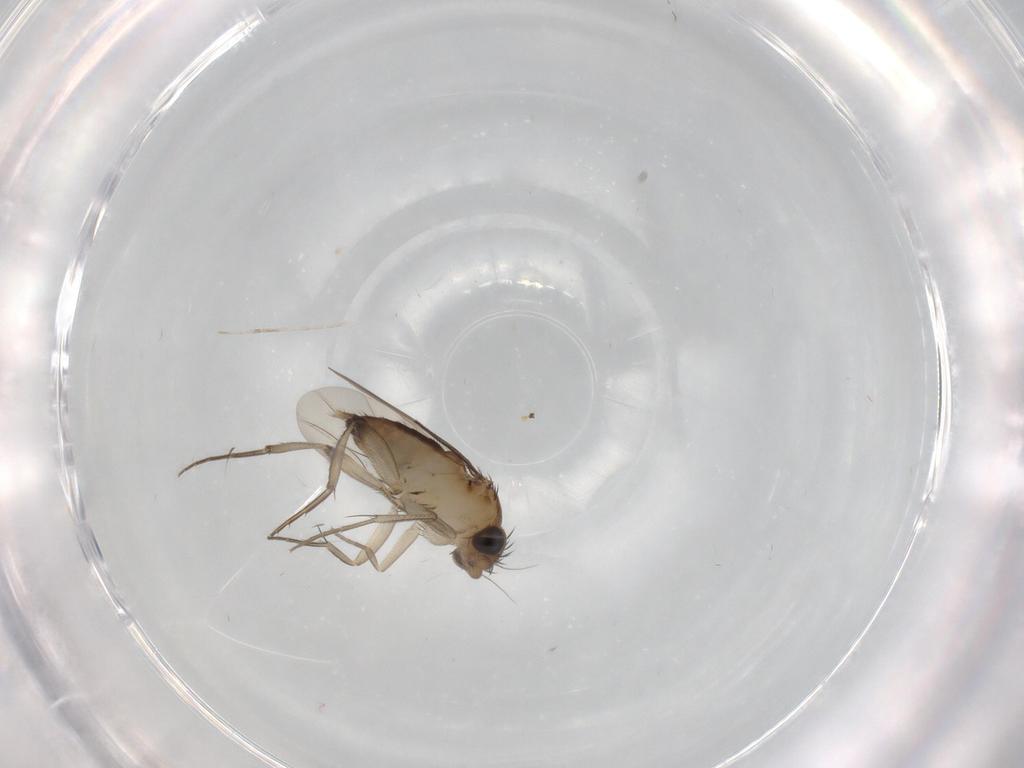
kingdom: Animalia
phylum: Arthropoda
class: Insecta
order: Diptera
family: Phoridae
